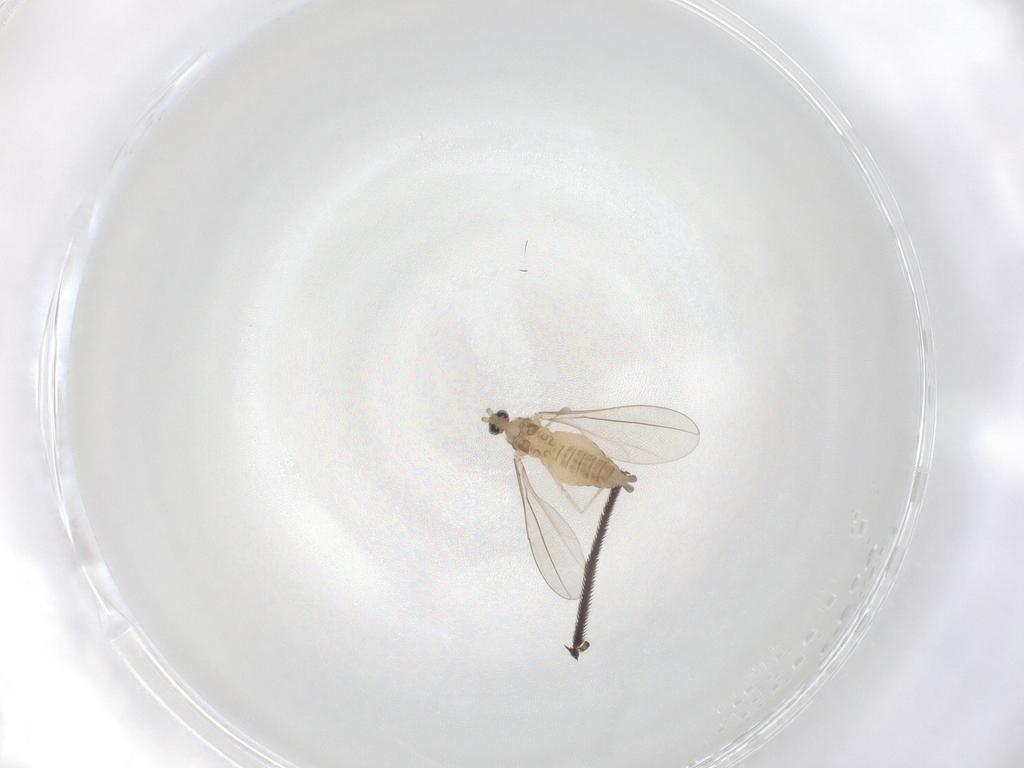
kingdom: Animalia
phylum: Arthropoda
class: Insecta
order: Diptera
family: Cecidomyiidae
